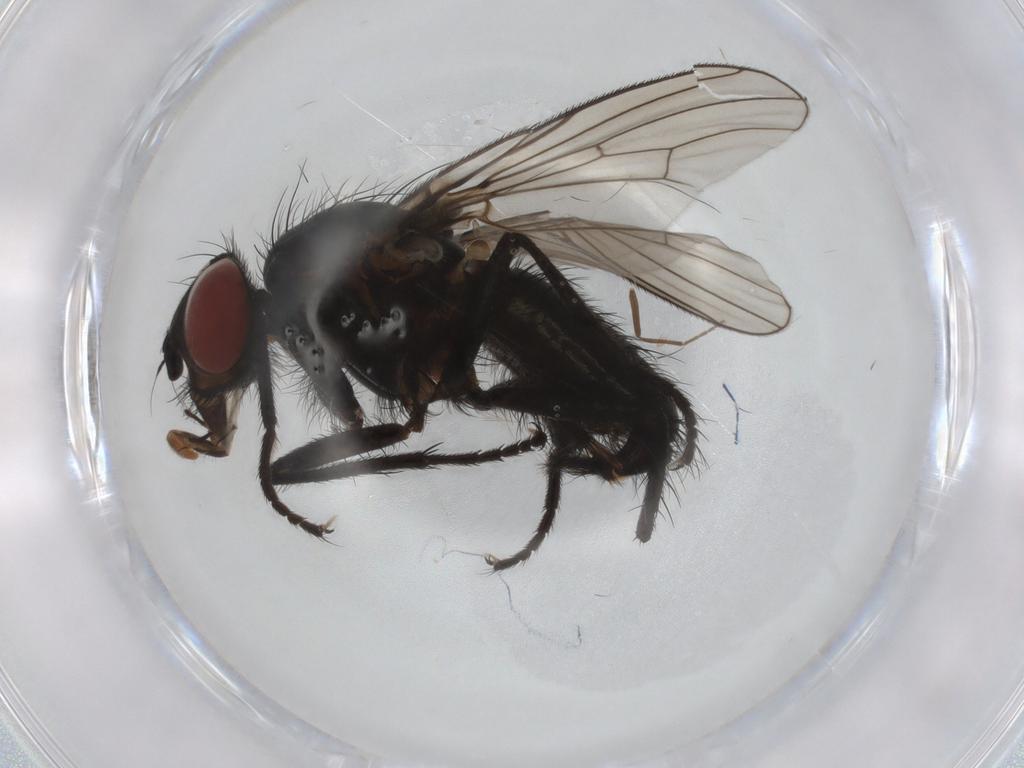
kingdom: Animalia
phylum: Arthropoda
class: Insecta
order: Diptera
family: Anthomyiidae
